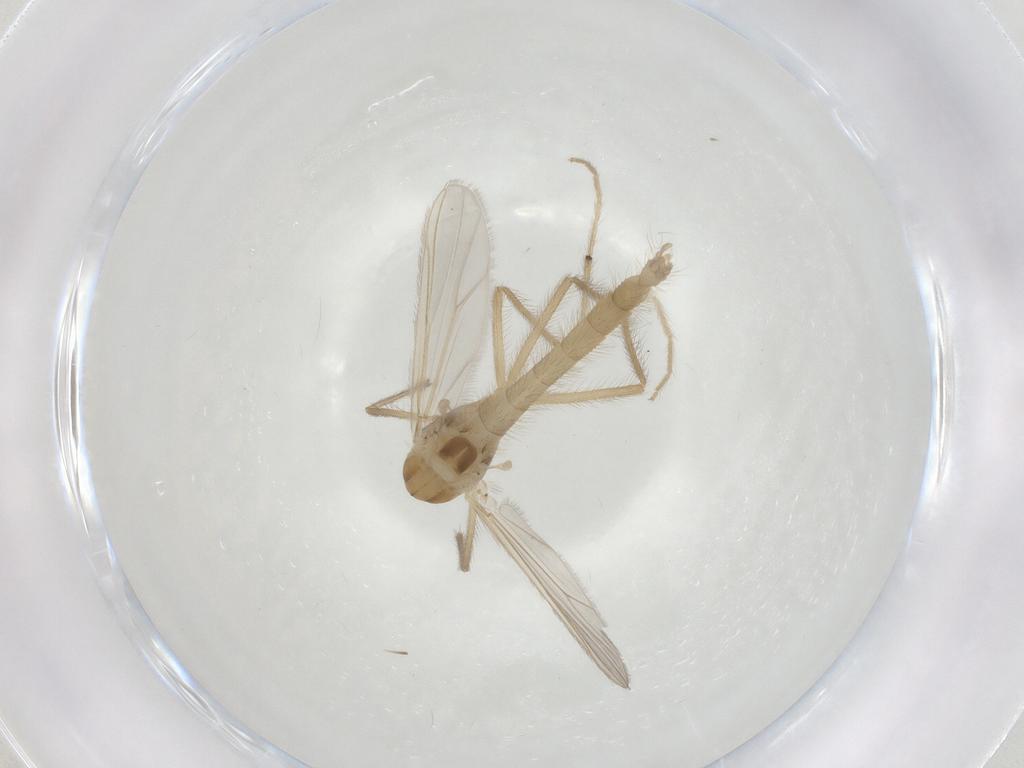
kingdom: Animalia
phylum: Arthropoda
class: Insecta
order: Diptera
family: Chironomidae
